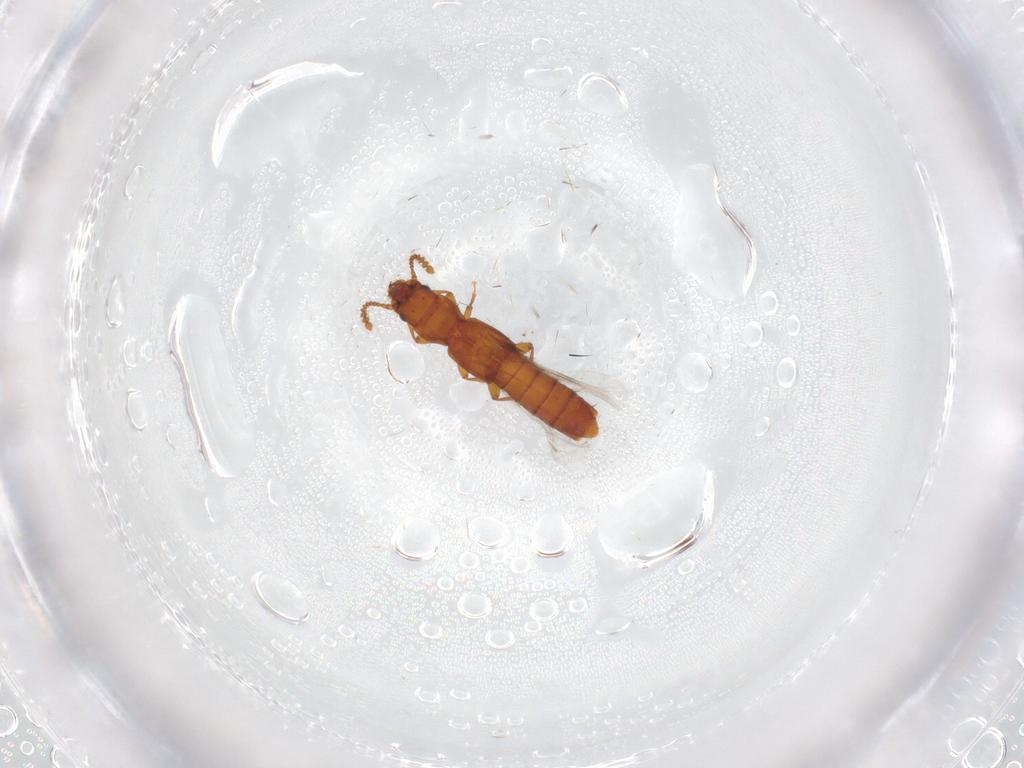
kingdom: Animalia
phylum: Arthropoda
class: Insecta
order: Coleoptera
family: Staphylinidae
